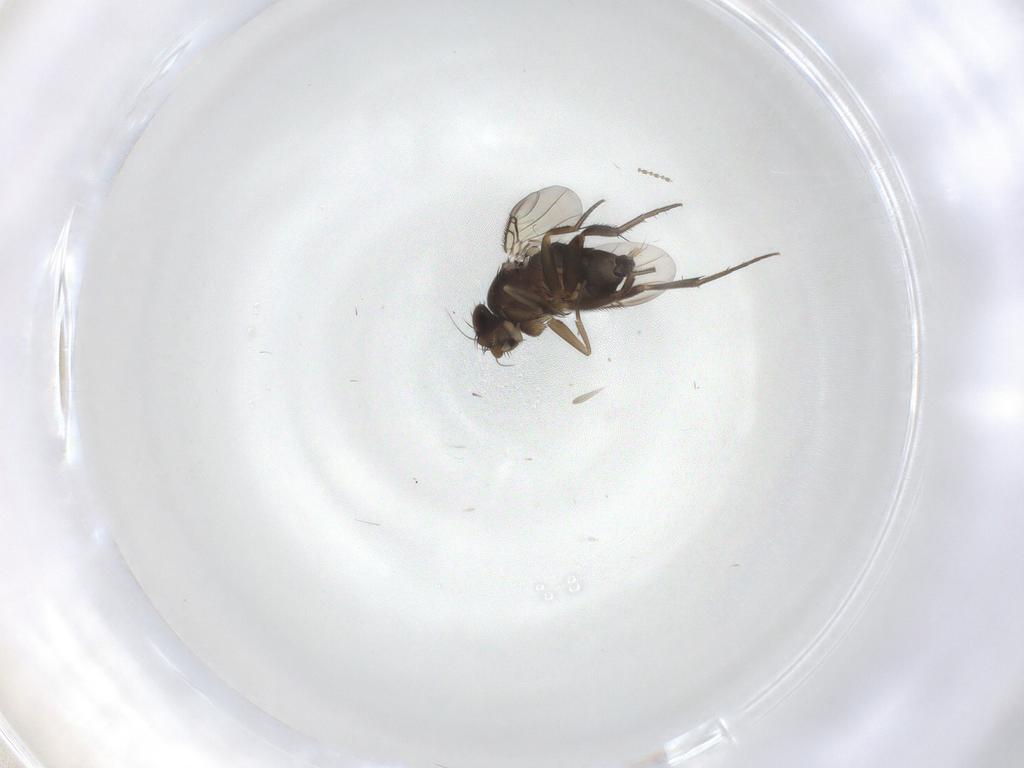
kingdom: Animalia
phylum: Arthropoda
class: Insecta
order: Diptera
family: Phoridae
